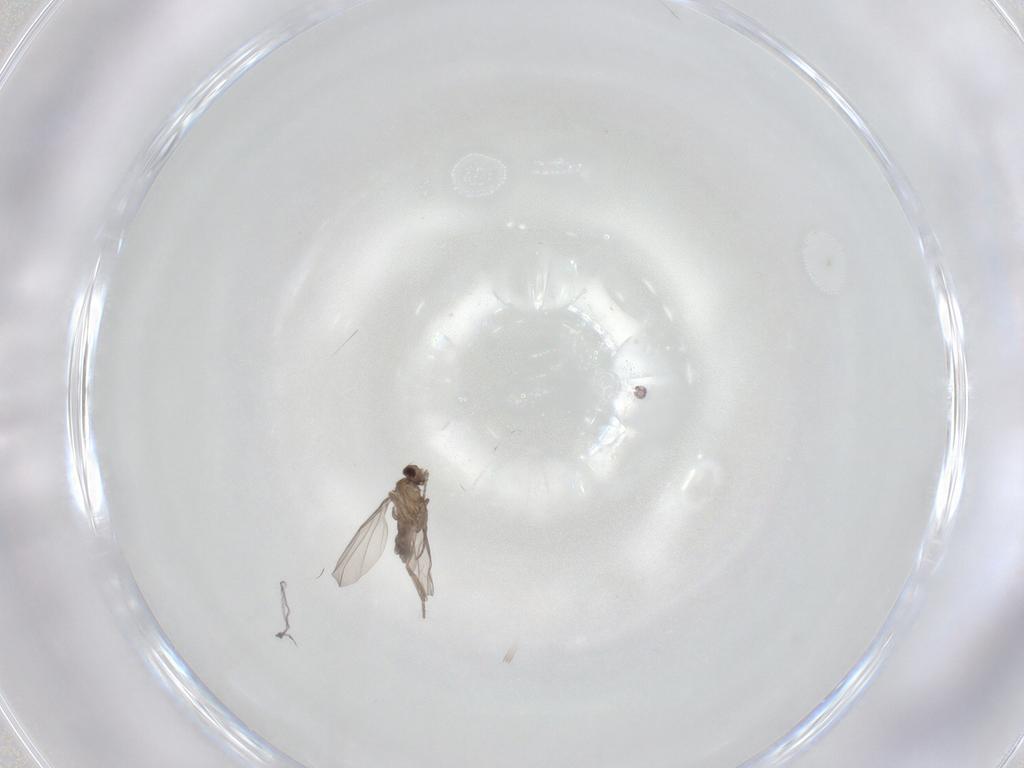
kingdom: Animalia
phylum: Arthropoda
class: Insecta
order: Diptera
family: Phoridae
